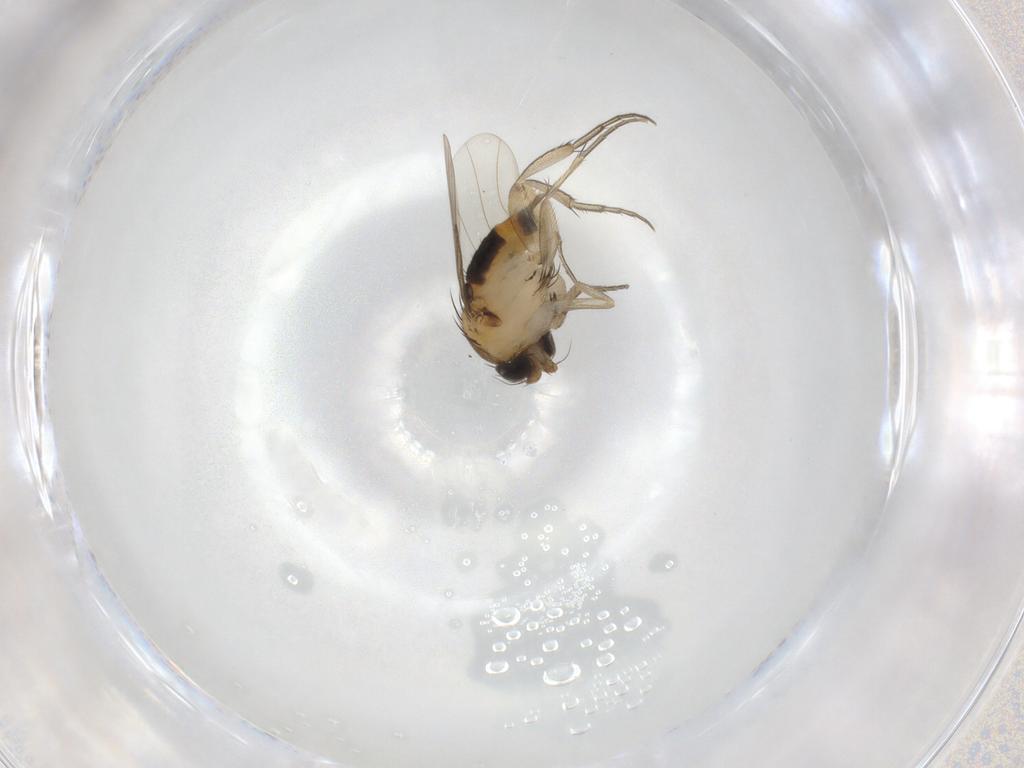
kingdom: Animalia
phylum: Arthropoda
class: Insecta
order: Diptera
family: Phoridae
